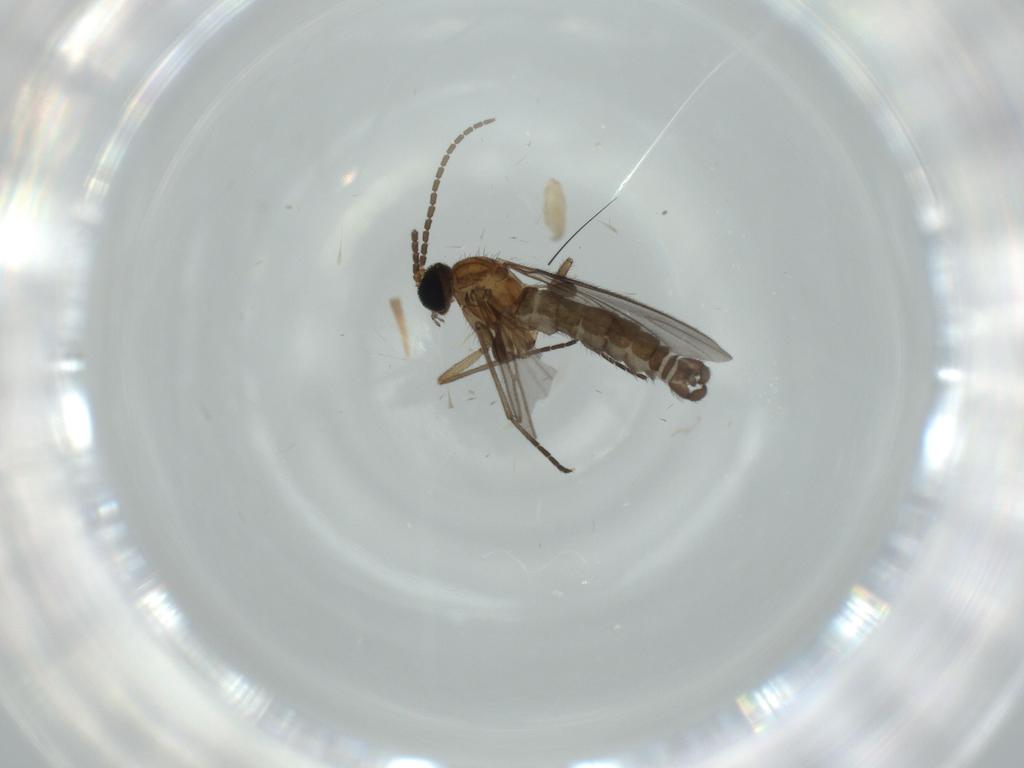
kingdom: Animalia
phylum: Arthropoda
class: Insecta
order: Diptera
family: Sciaridae
